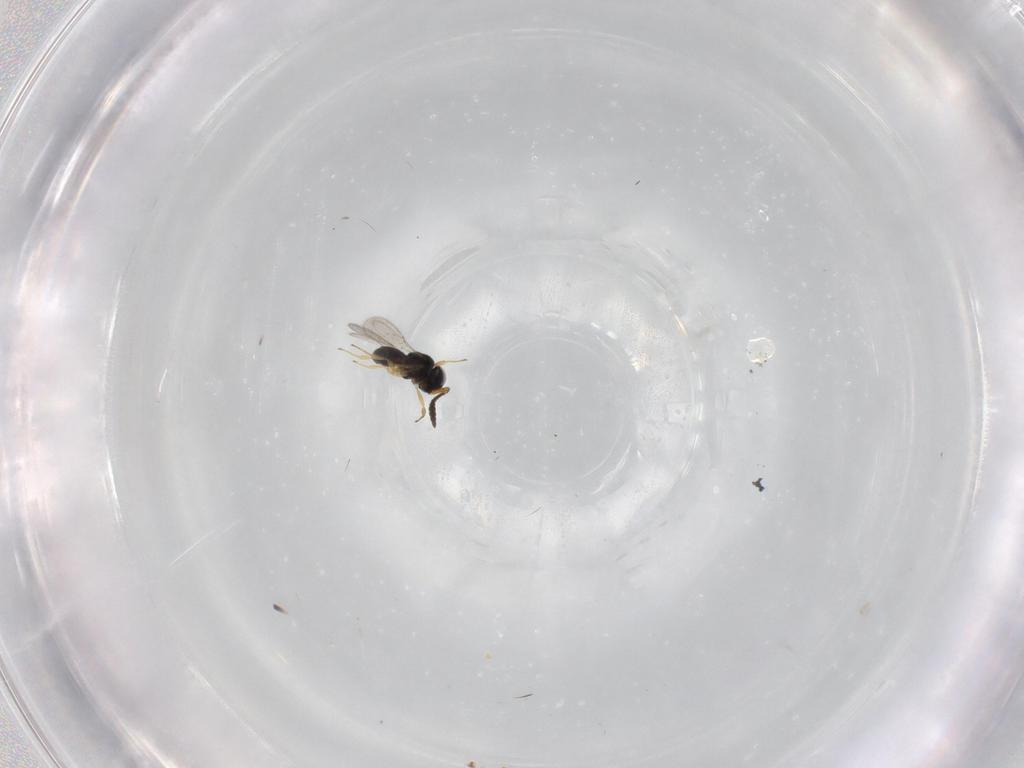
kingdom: Animalia
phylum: Arthropoda
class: Insecta
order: Hymenoptera
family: Scelionidae
